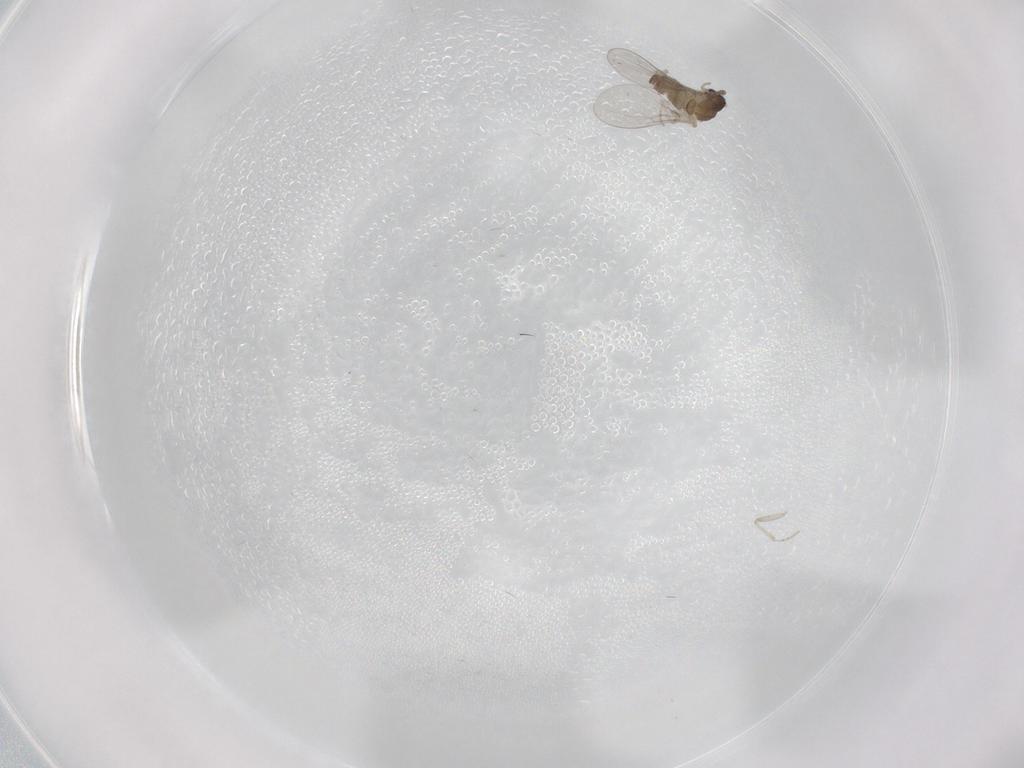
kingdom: Animalia
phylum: Arthropoda
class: Insecta
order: Diptera
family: Cecidomyiidae
